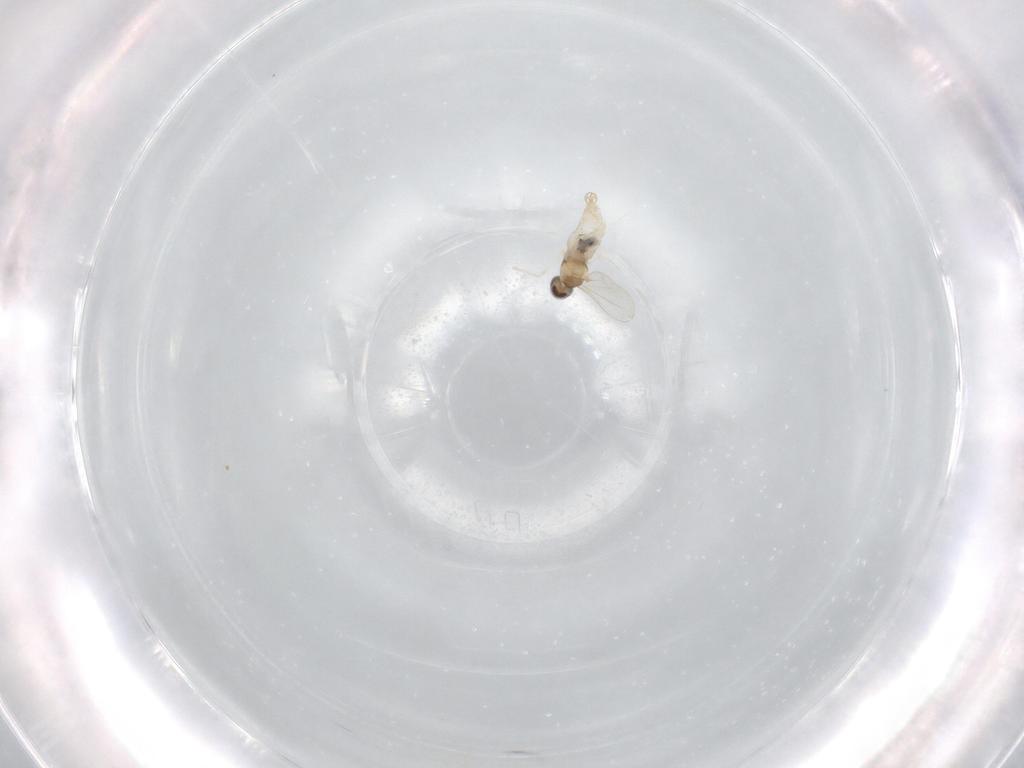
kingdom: Animalia
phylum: Arthropoda
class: Insecta
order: Diptera
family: Cecidomyiidae
